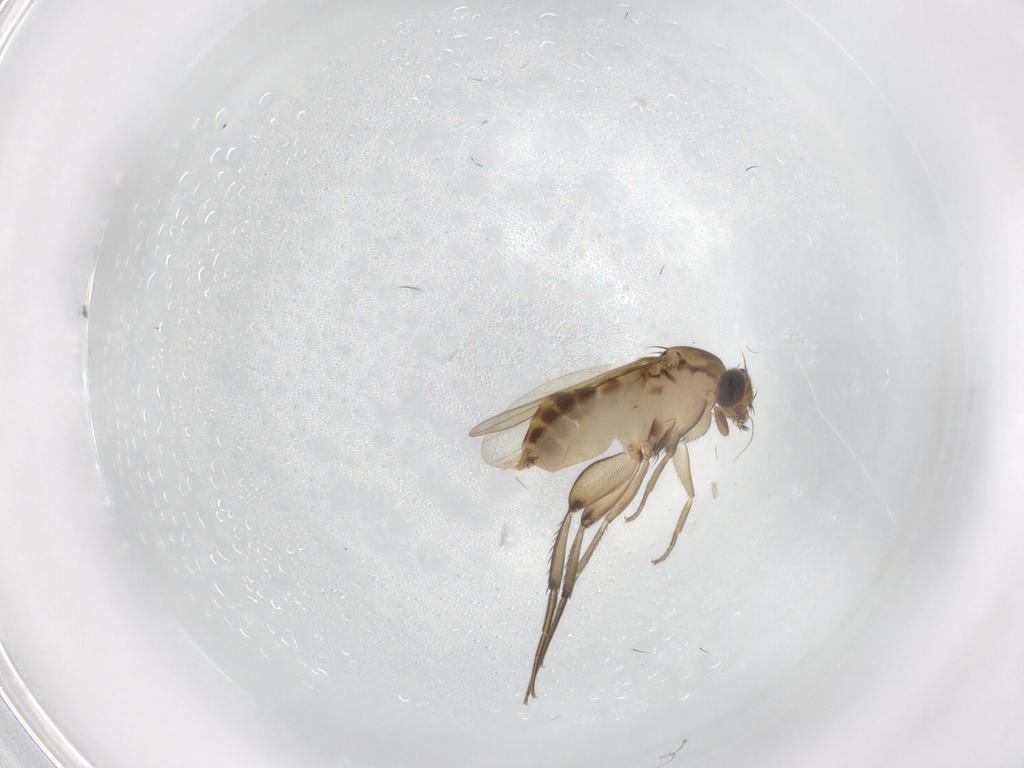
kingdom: Animalia
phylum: Arthropoda
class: Insecta
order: Diptera
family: Phoridae
